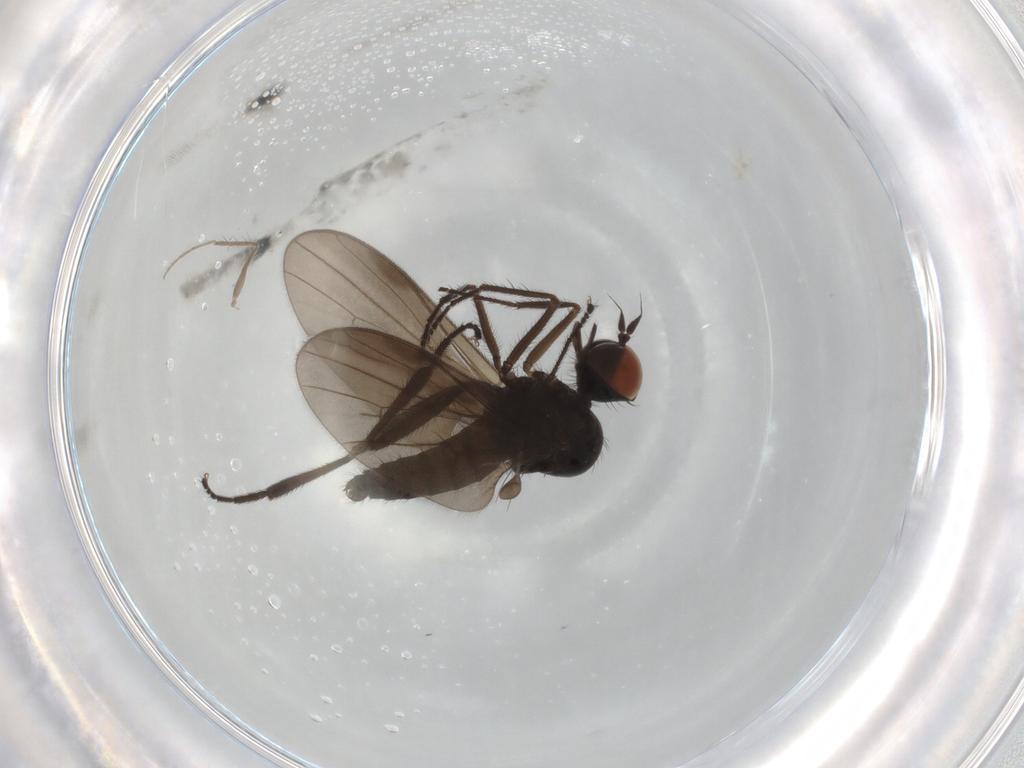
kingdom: Animalia
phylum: Arthropoda
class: Insecta
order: Diptera
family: Hybotidae
